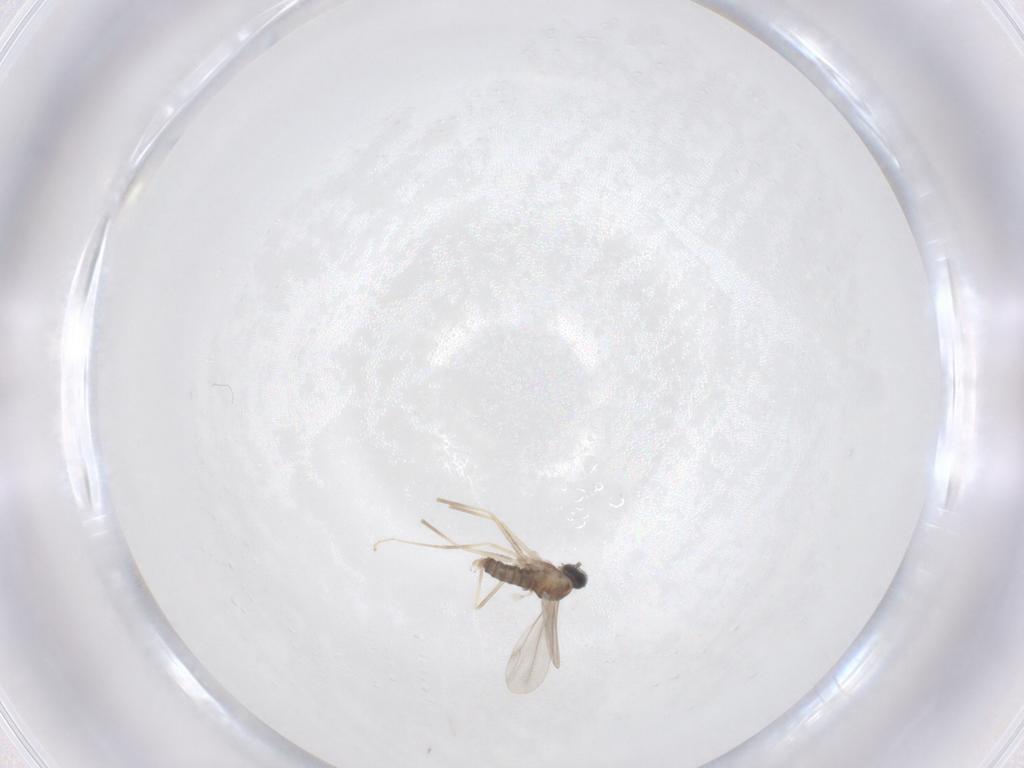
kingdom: Animalia
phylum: Arthropoda
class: Insecta
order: Diptera
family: Cecidomyiidae
